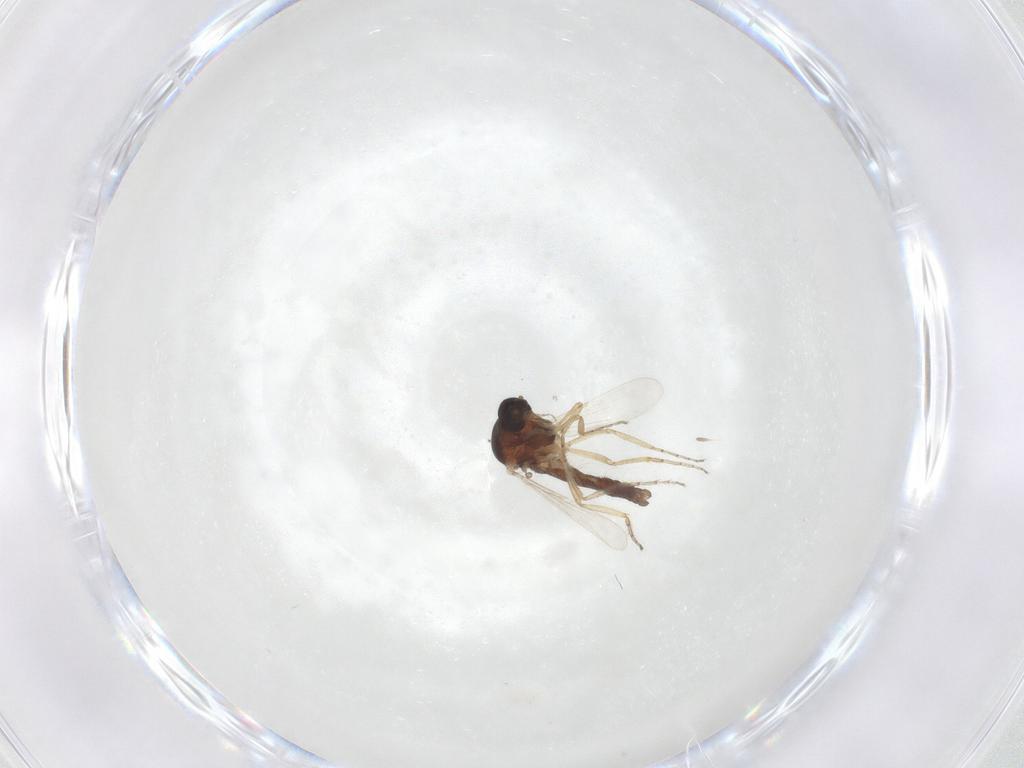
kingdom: Animalia
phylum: Arthropoda
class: Insecta
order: Diptera
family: Ceratopogonidae
